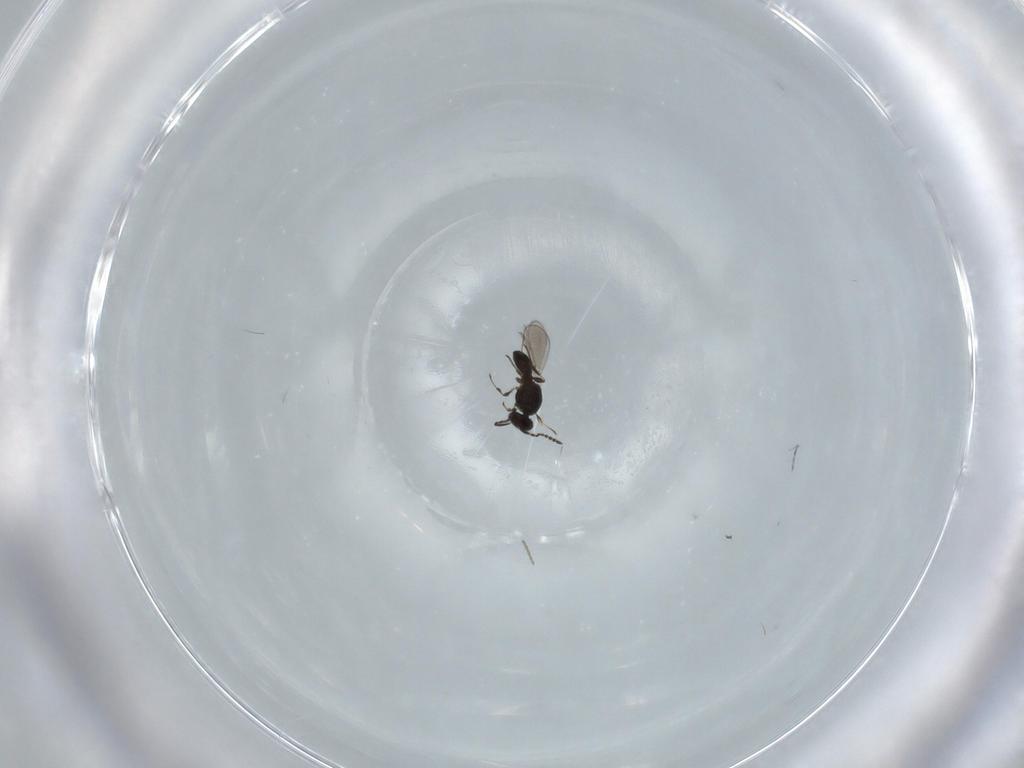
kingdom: Animalia
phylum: Arthropoda
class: Insecta
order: Hymenoptera
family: Platygastridae
